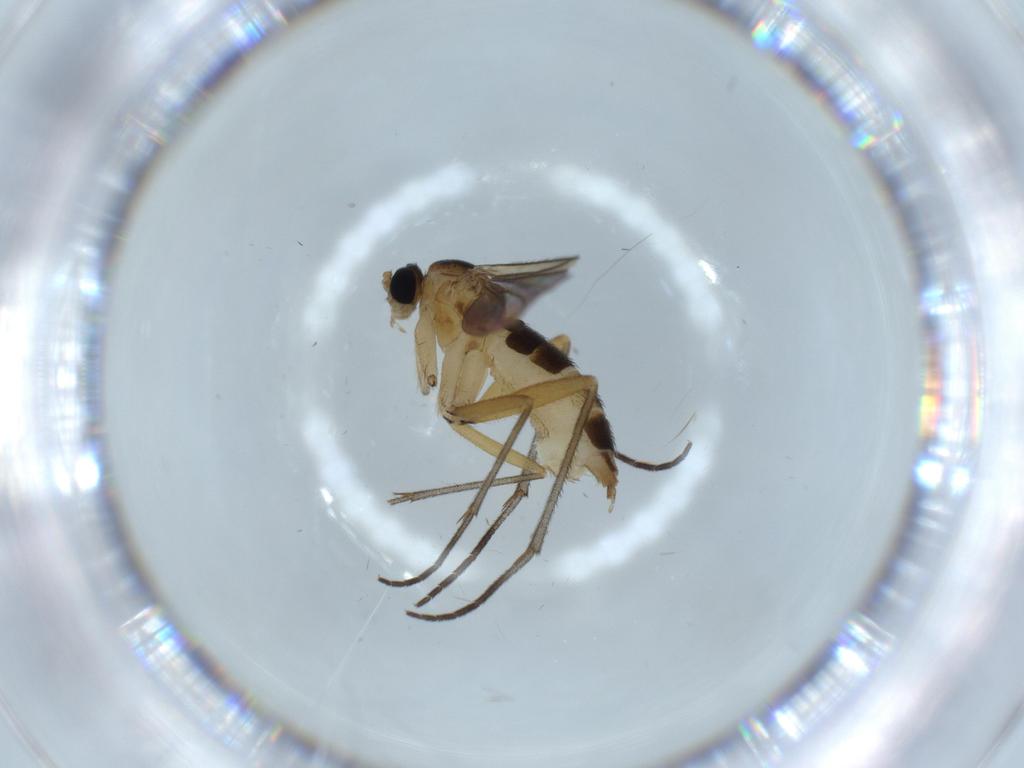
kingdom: Animalia
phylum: Arthropoda
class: Insecta
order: Diptera
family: Sciaridae
